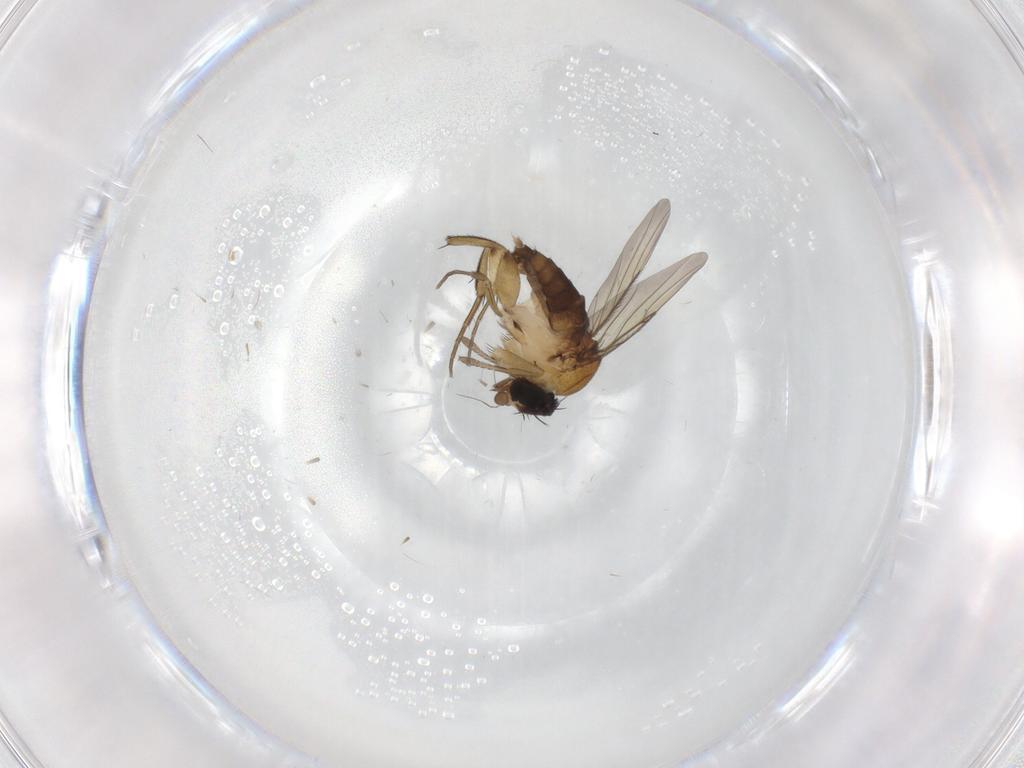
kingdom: Animalia
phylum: Arthropoda
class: Insecta
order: Diptera
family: Phoridae
